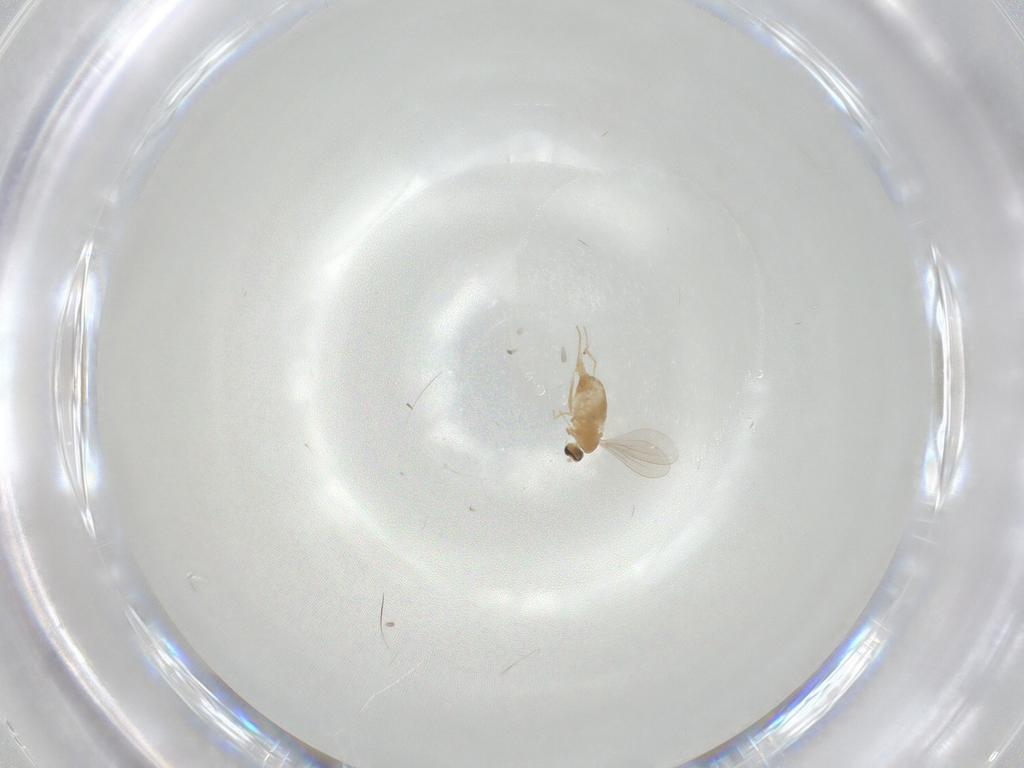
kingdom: Animalia
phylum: Arthropoda
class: Insecta
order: Diptera
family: Cecidomyiidae
